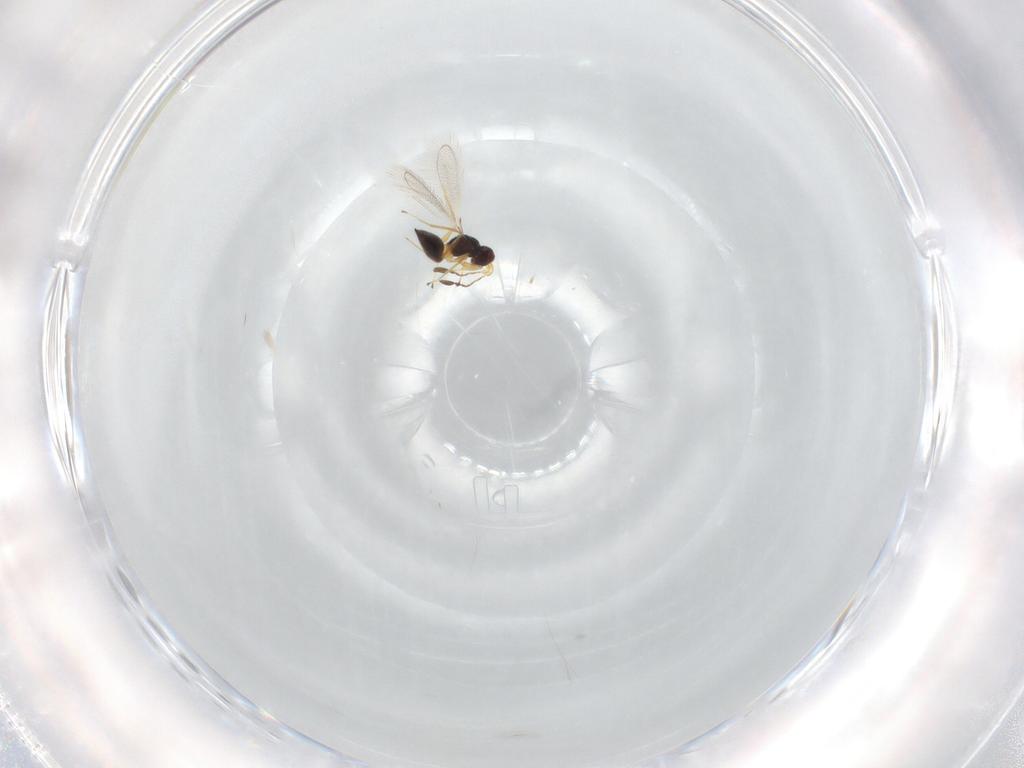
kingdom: Animalia
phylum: Arthropoda
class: Insecta
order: Hymenoptera
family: Mymaridae
